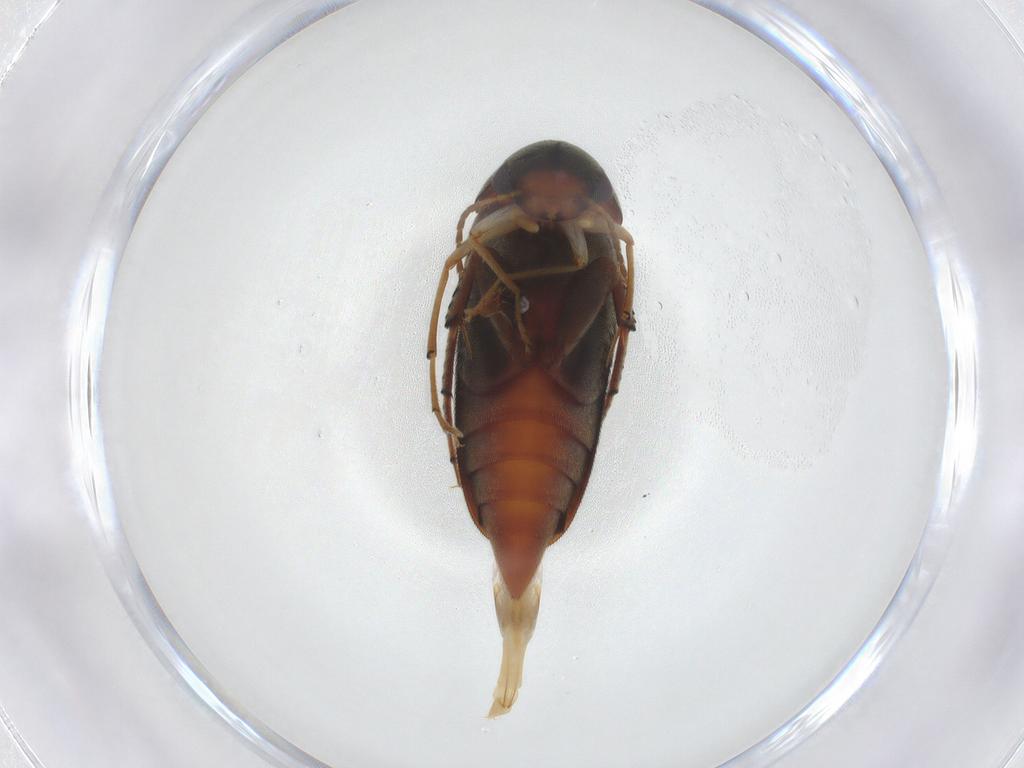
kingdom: Animalia
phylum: Arthropoda
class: Insecta
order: Coleoptera
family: Mordellidae
